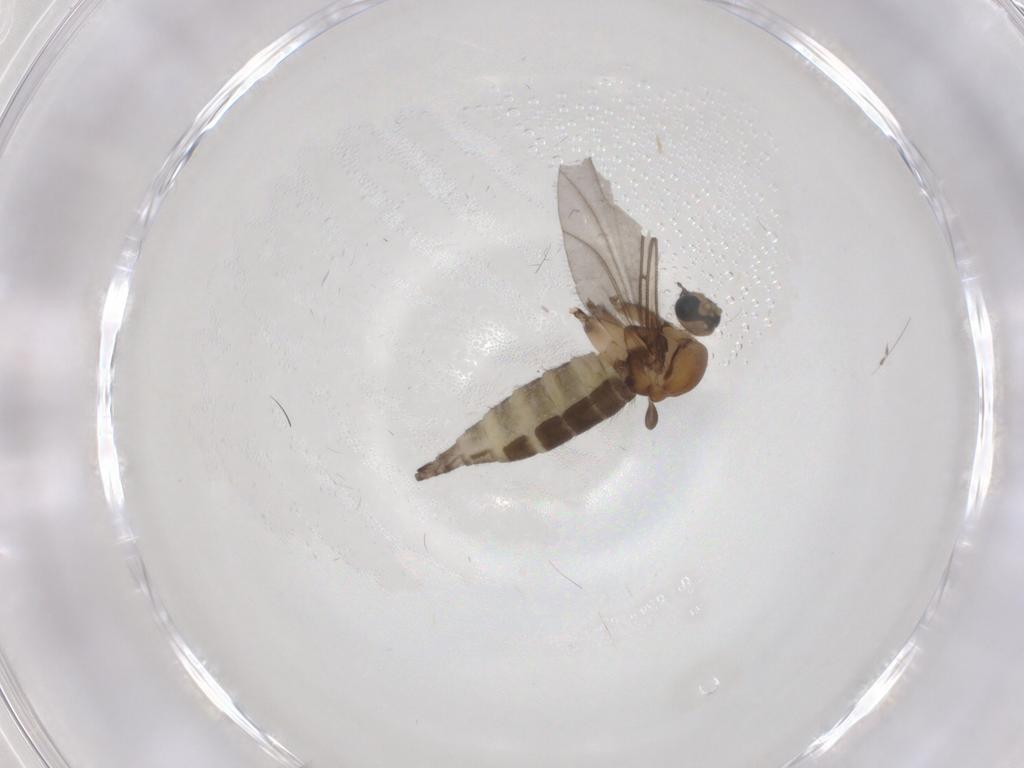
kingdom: Animalia
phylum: Arthropoda
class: Insecta
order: Diptera
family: Sciaridae
